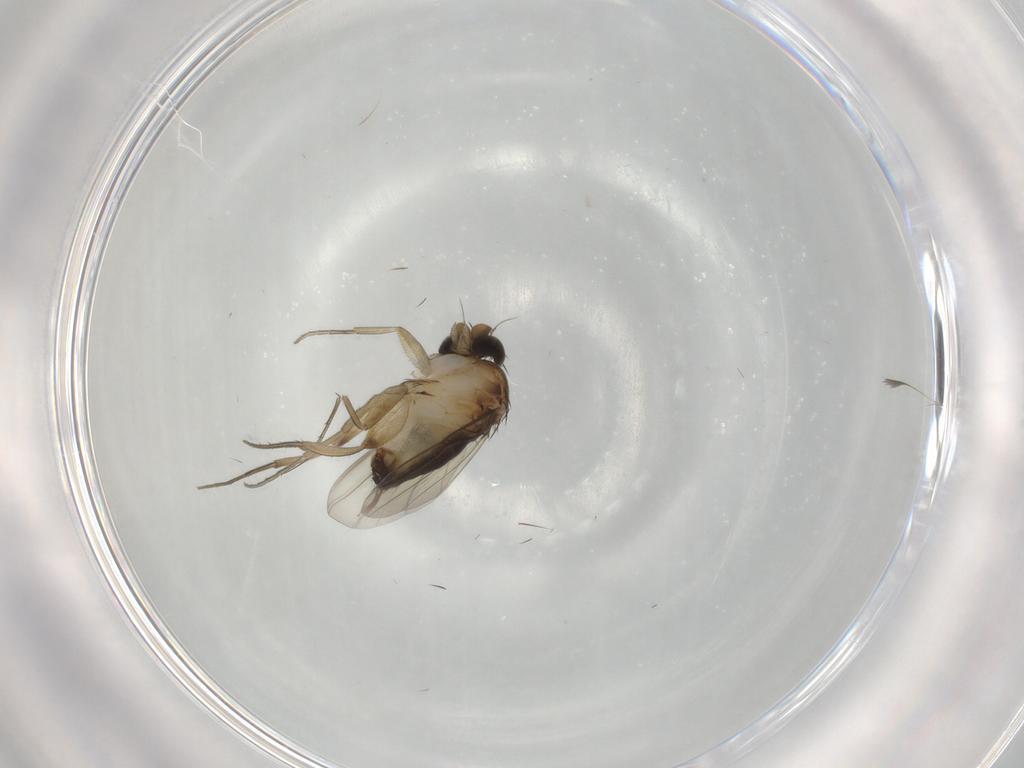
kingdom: Animalia
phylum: Arthropoda
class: Insecta
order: Diptera
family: Phoridae
